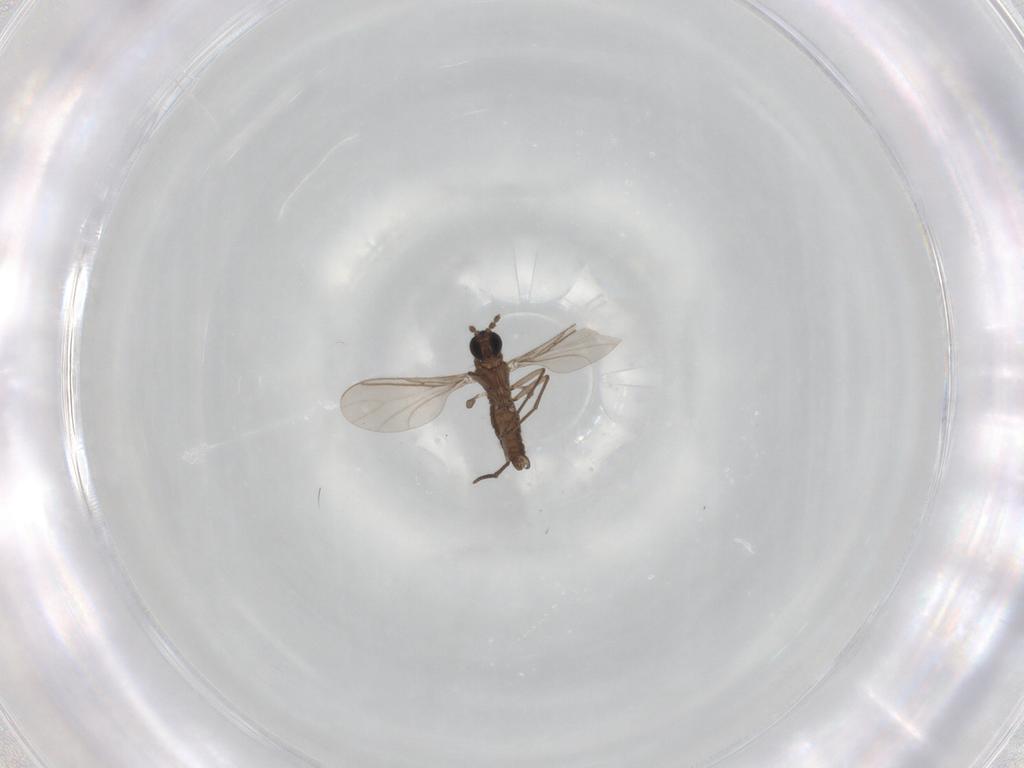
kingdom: Animalia
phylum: Arthropoda
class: Insecta
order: Diptera
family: Sciaridae
